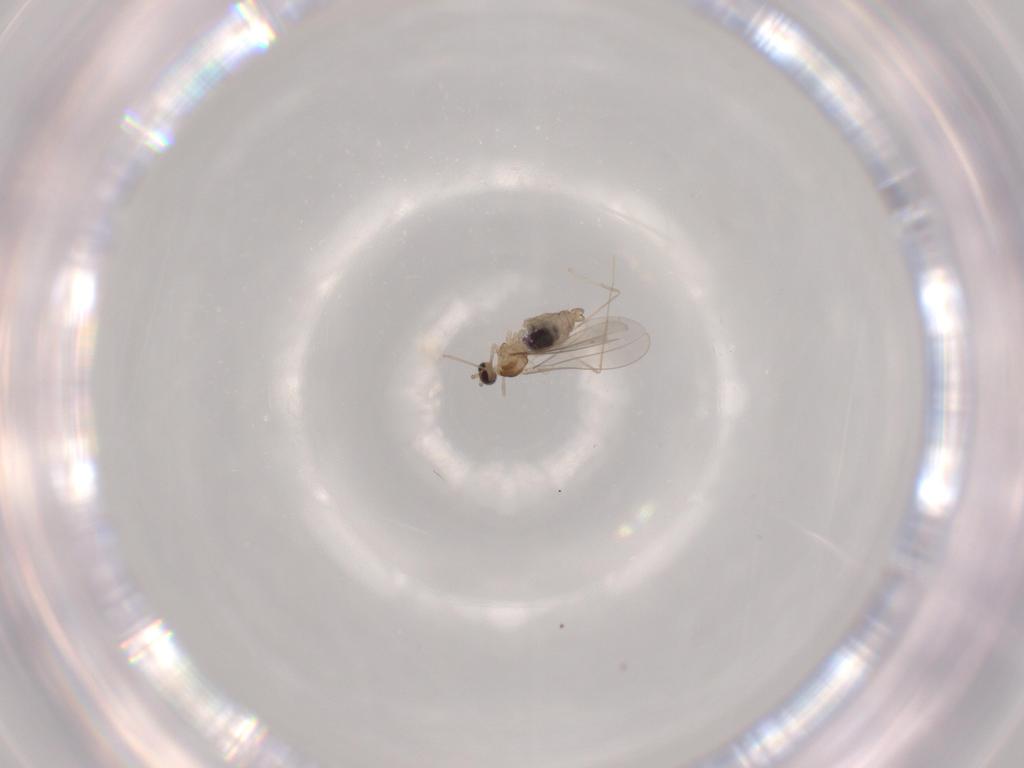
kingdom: Animalia
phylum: Arthropoda
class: Insecta
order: Diptera
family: Cecidomyiidae
